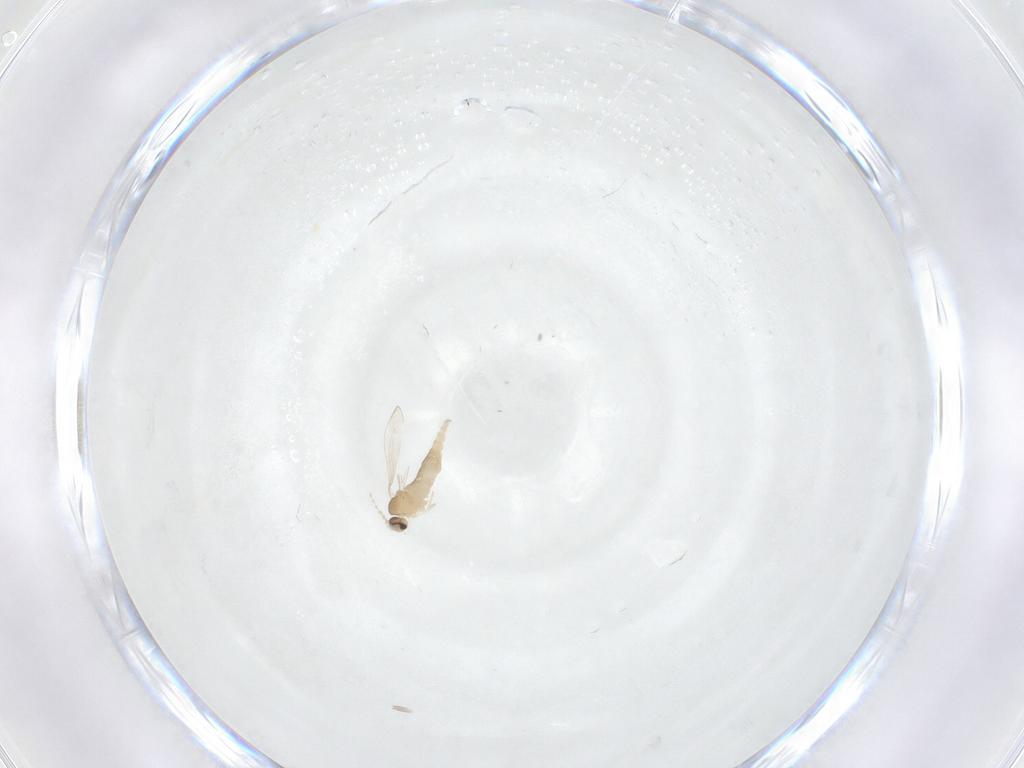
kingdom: Animalia
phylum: Arthropoda
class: Insecta
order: Diptera
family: Cecidomyiidae
